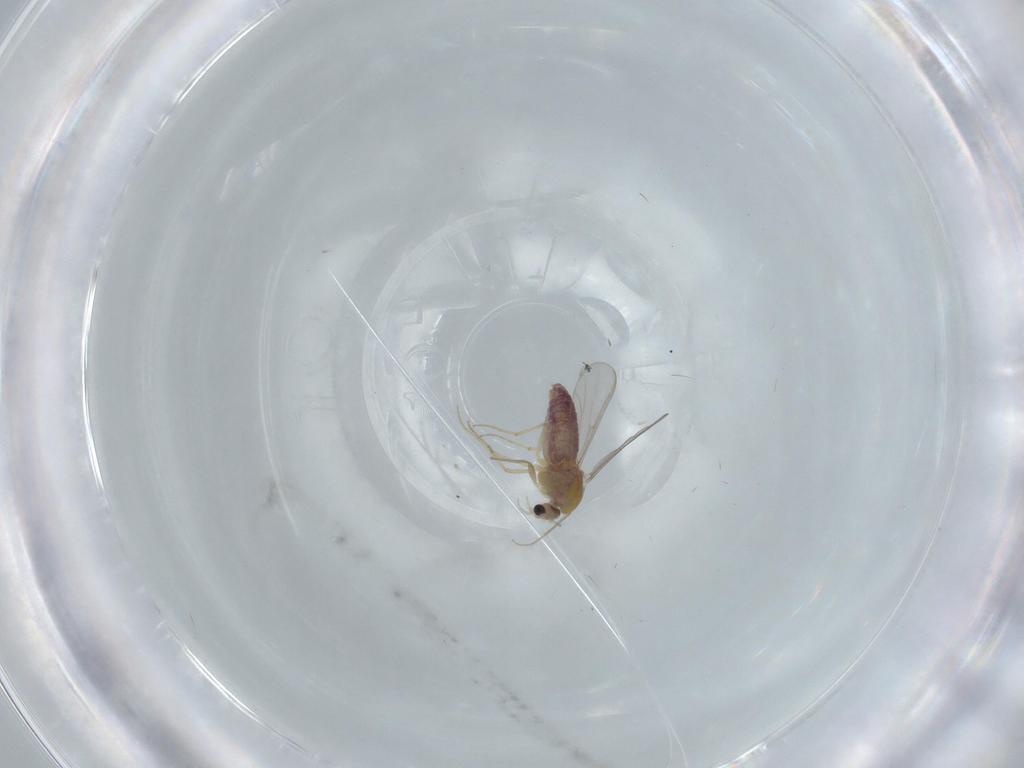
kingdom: Animalia
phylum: Arthropoda
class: Insecta
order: Diptera
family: Chironomidae
